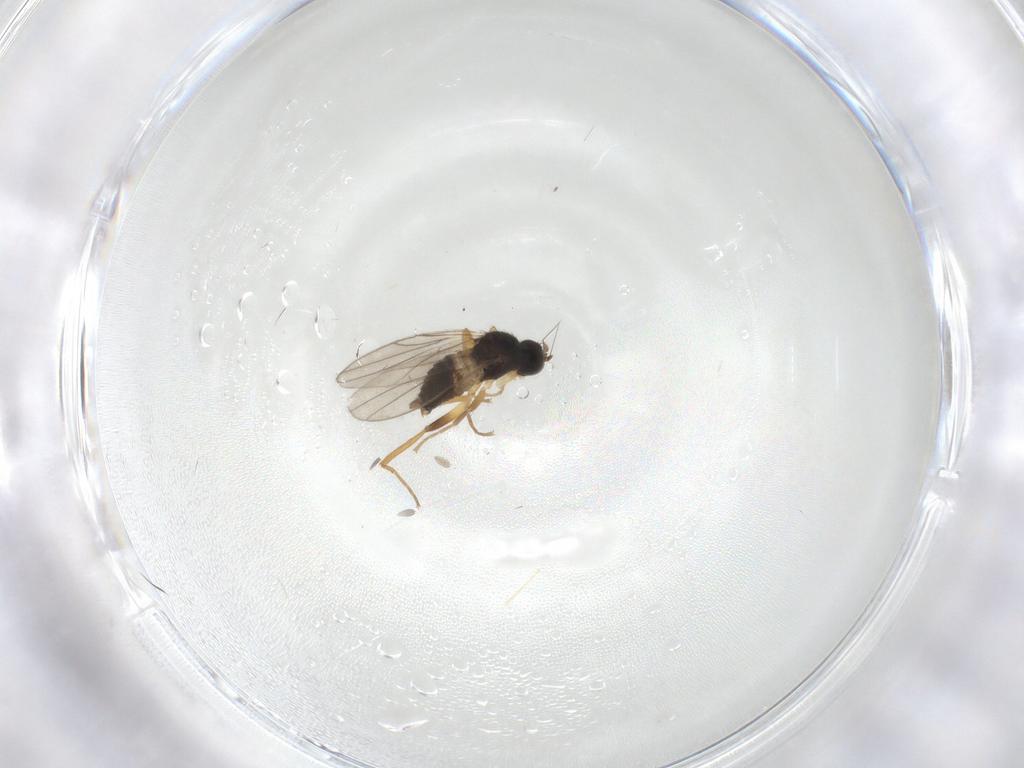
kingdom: Animalia
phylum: Arthropoda
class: Insecta
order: Diptera
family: Hybotidae
